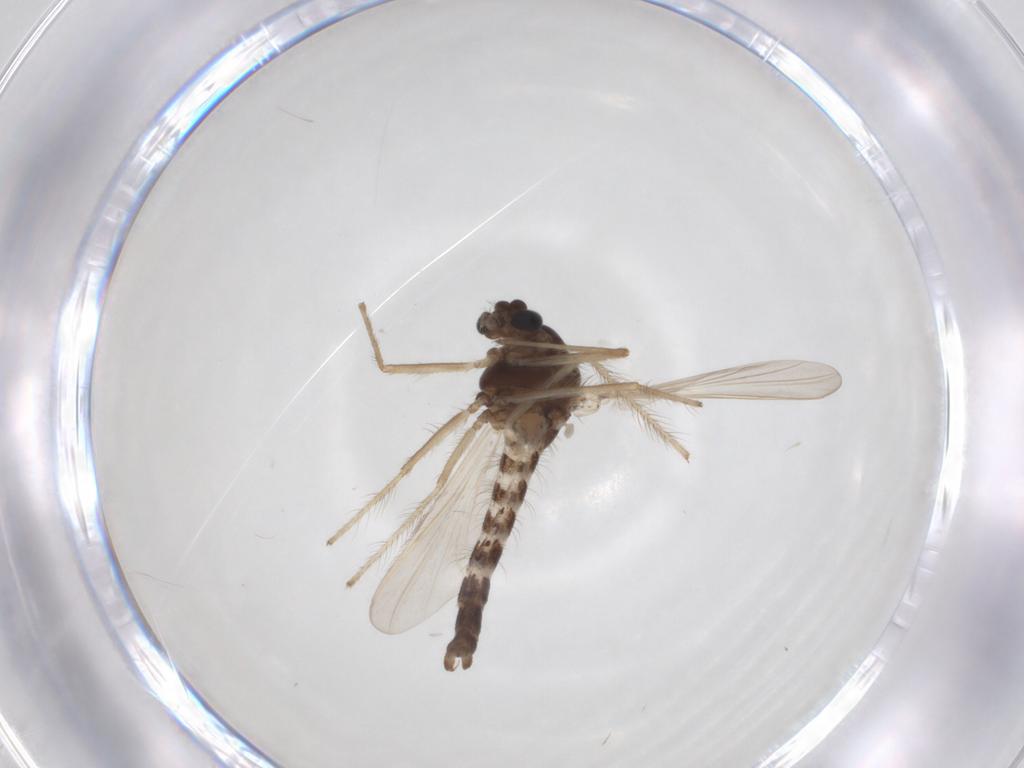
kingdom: Animalia
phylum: Arthropoda
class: Insecta
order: Diptera
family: Chironomidae
